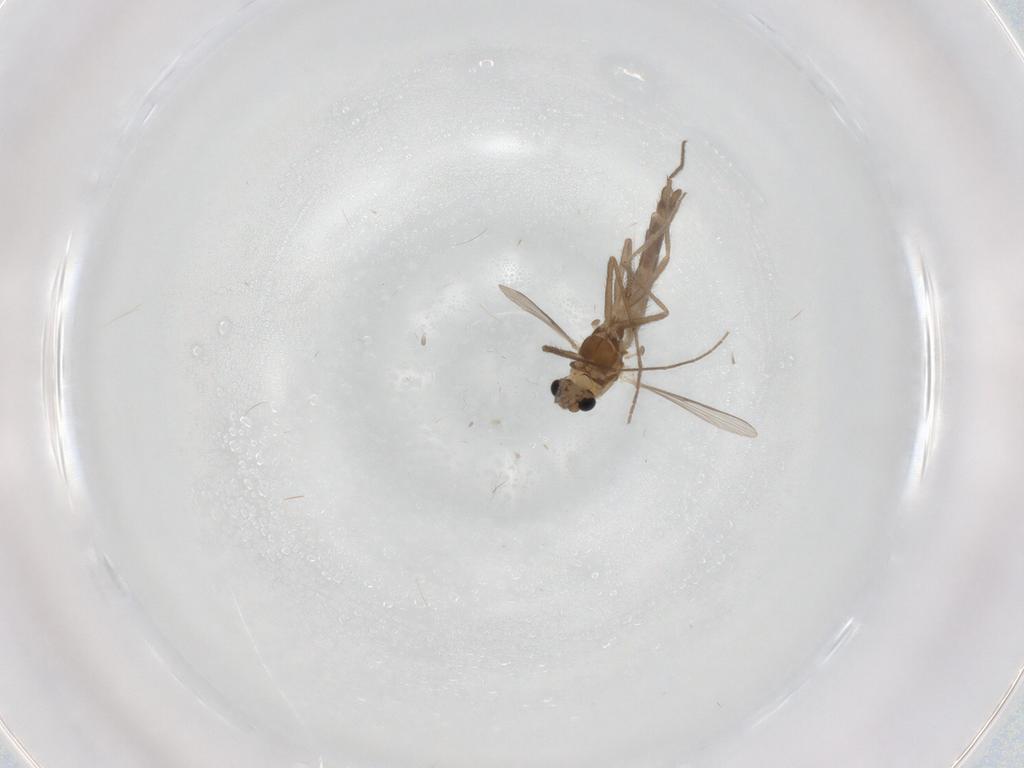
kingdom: Animalia
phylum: Arthropoda
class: Insecta
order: Diptera
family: Chironomidae
